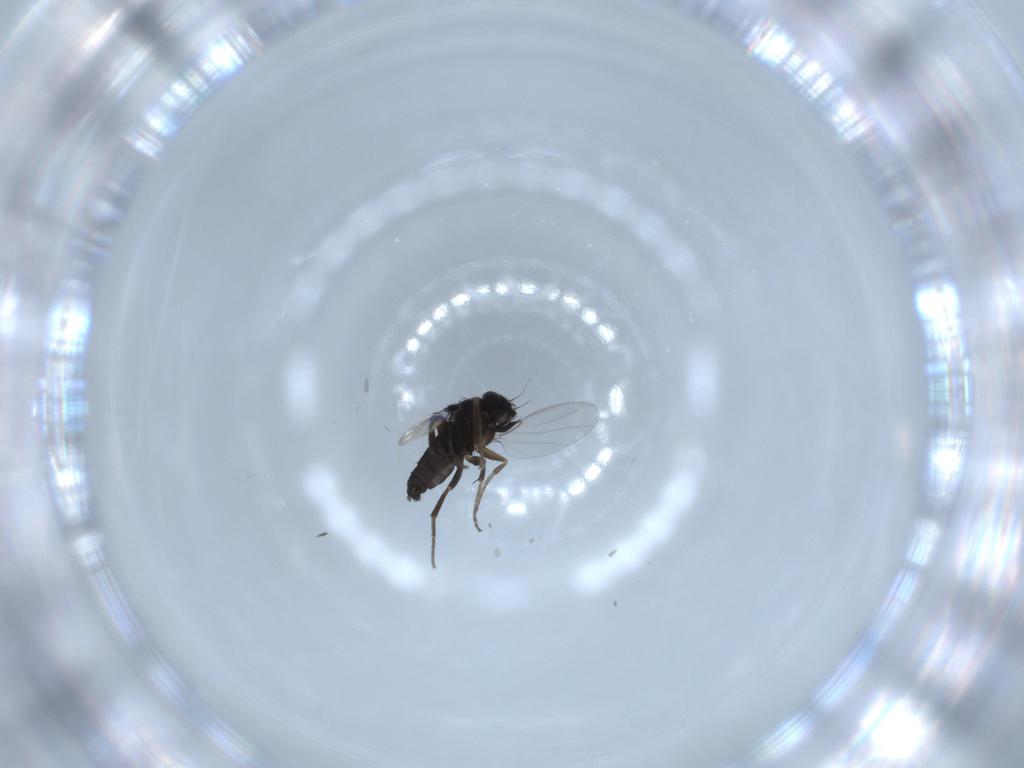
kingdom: Animalia
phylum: Arthropoda
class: Insecta
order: Diptera
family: Phoridae
